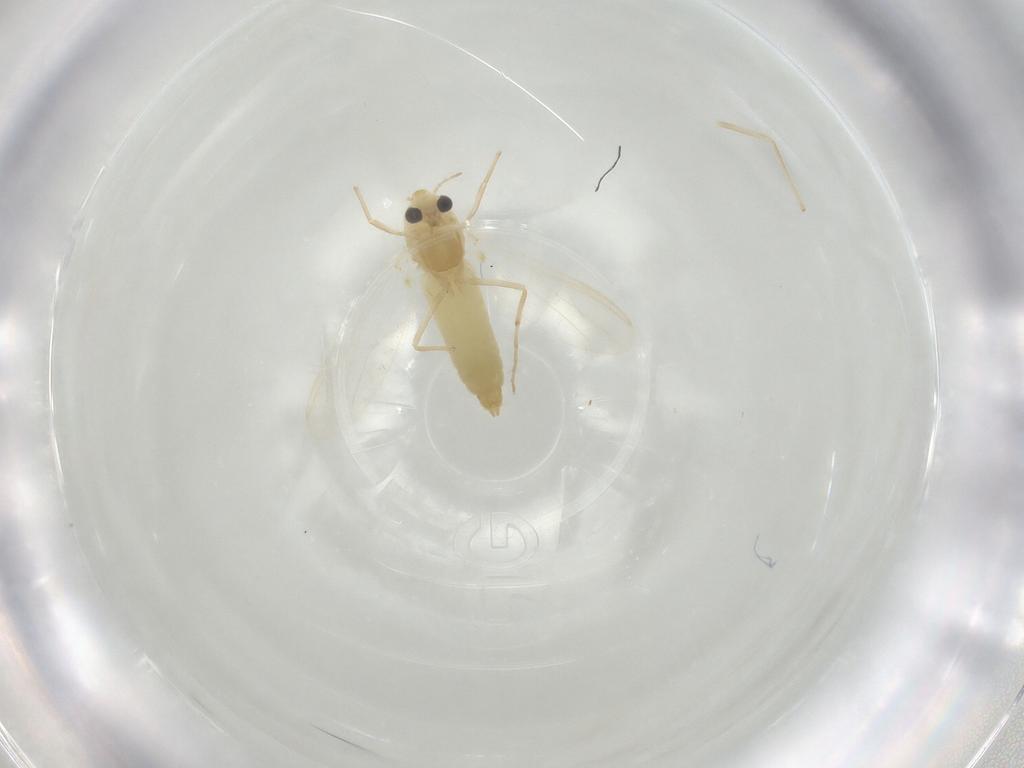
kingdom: Animalia
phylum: Arthropoda
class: Insecta
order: Diptera
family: Chironomidae
